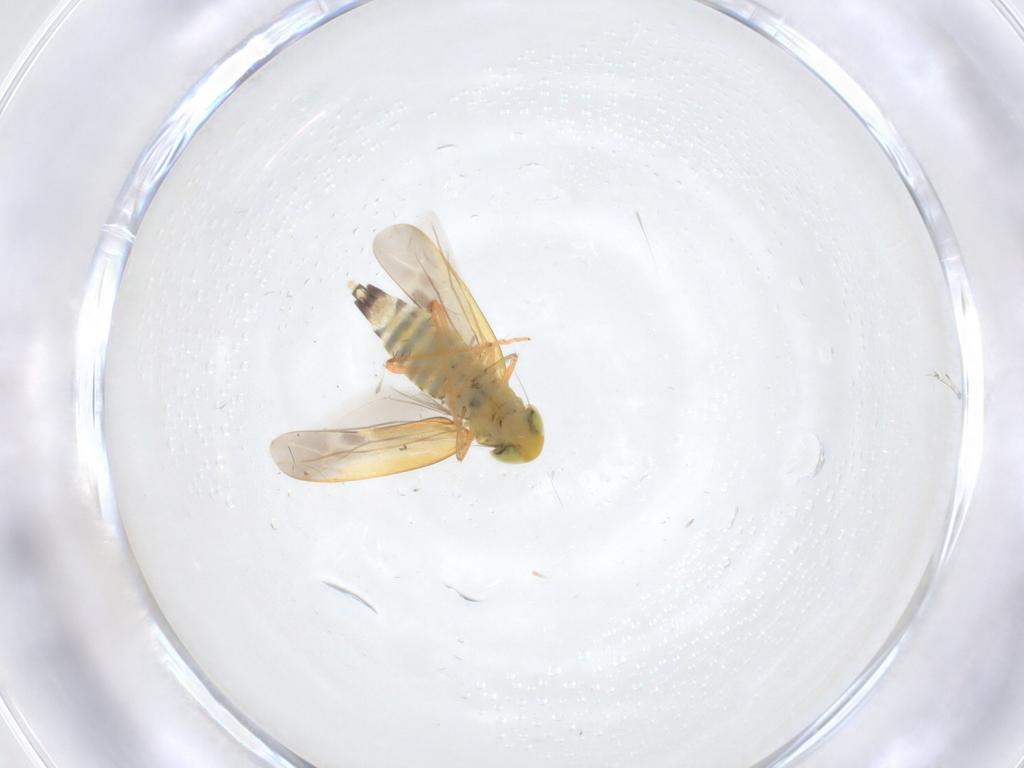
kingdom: Animalia
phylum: Arthropoda
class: Insecta
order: Hemiptera
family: Cicadellidae
